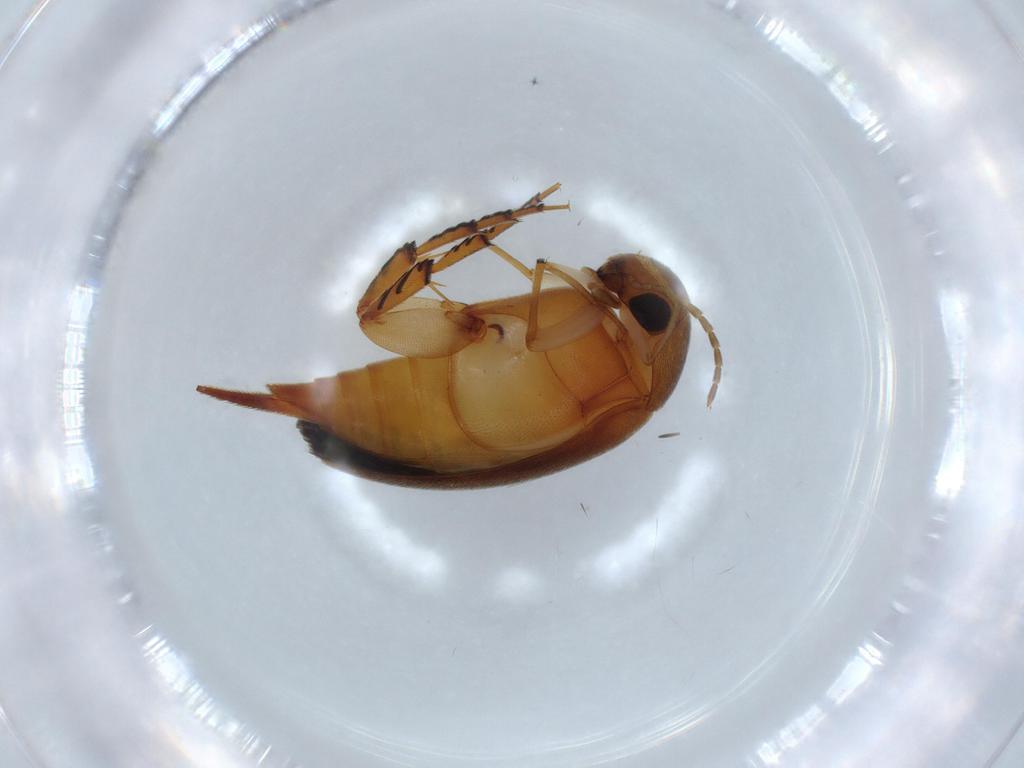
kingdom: Animalia
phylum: Arthropoda
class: Insecta
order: Coleoptera
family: Mordellidae
